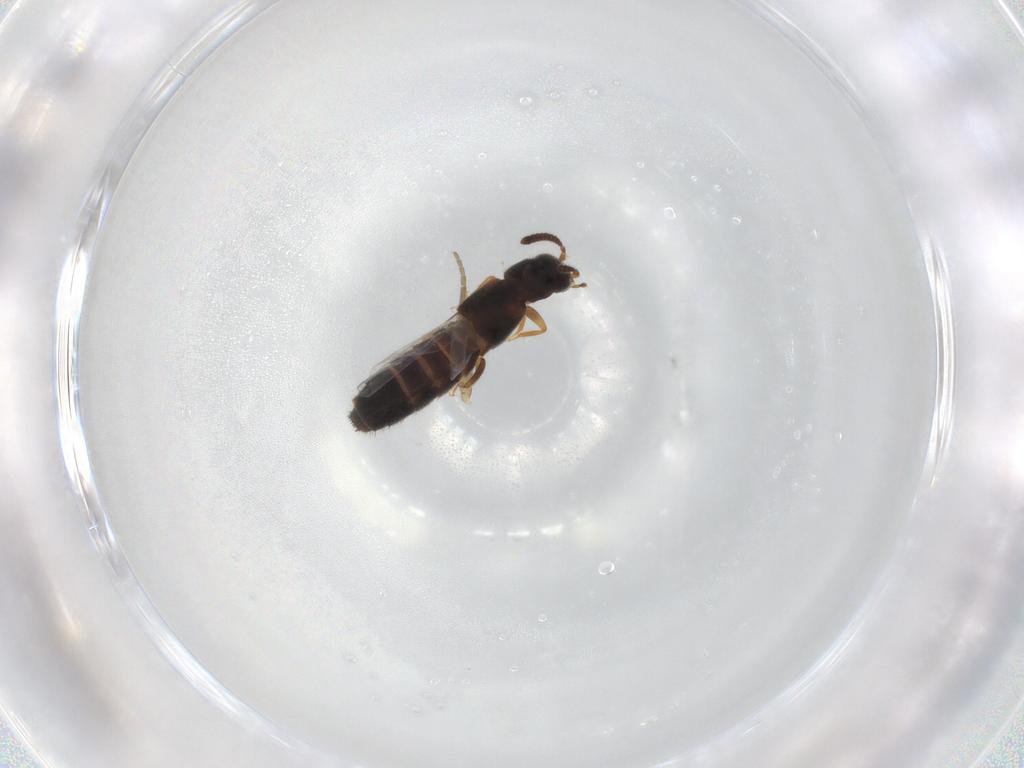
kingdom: Animalia
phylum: Arthropoda
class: Insecta
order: Coleoptera
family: Staphylinidae
